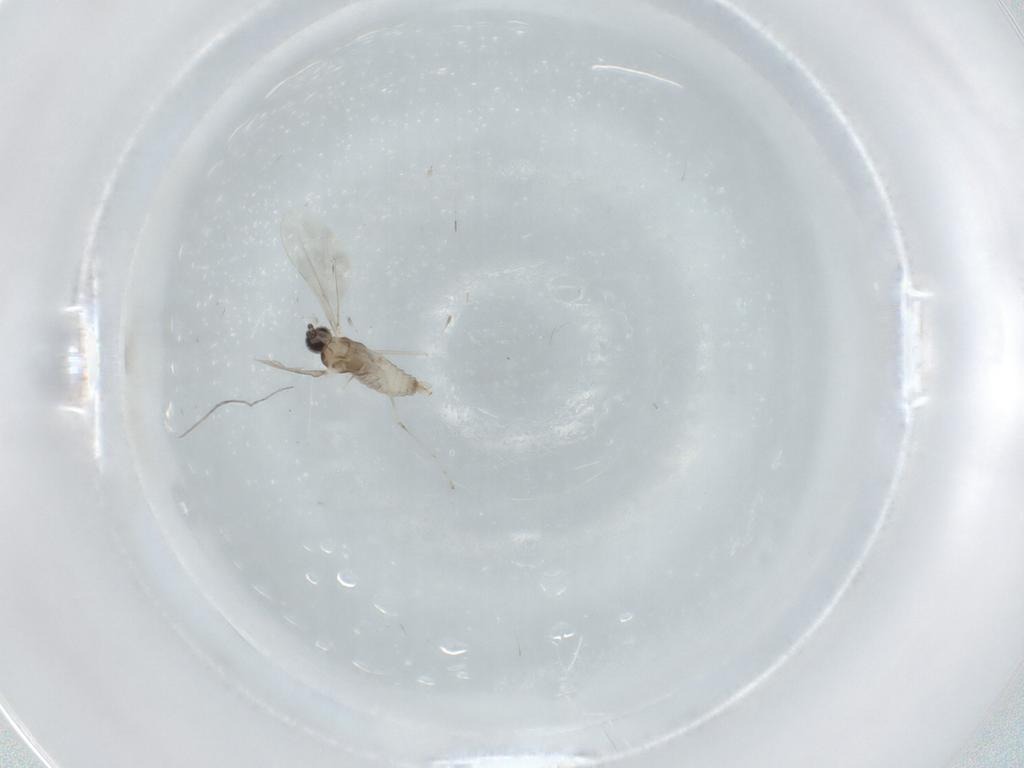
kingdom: Animalia
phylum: Arthropoda
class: Insecta
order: Diptera
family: Cecidomyiidae
